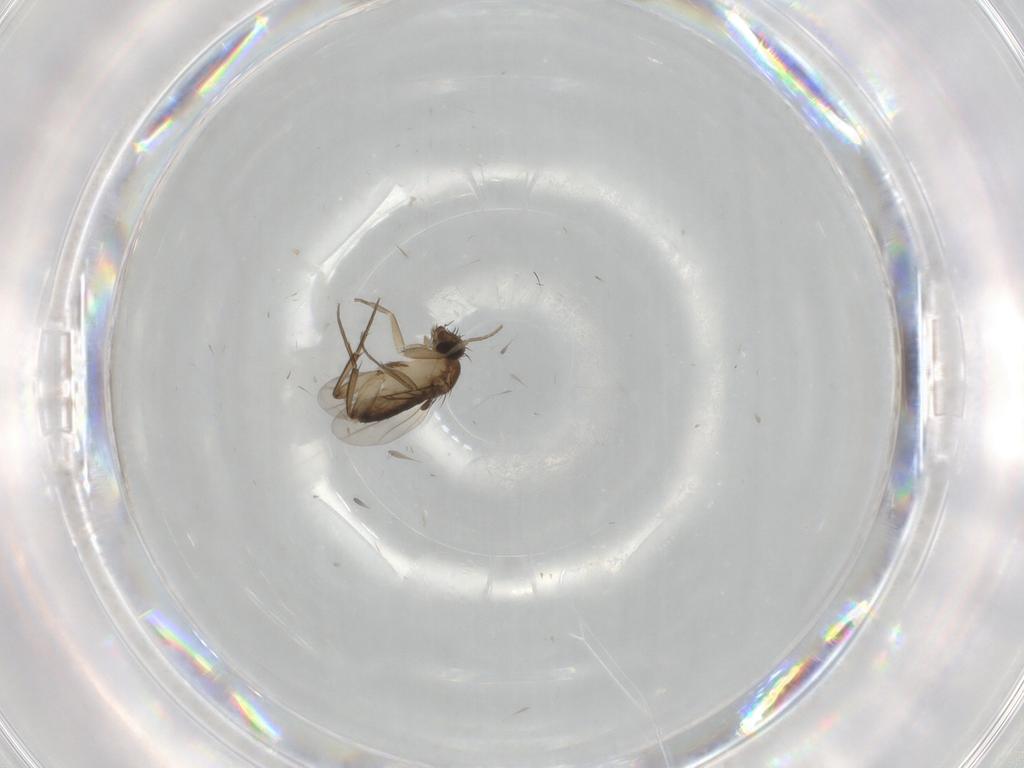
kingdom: Animalia
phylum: Arthropoda
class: Insecta
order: Diptera
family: Phoridae
